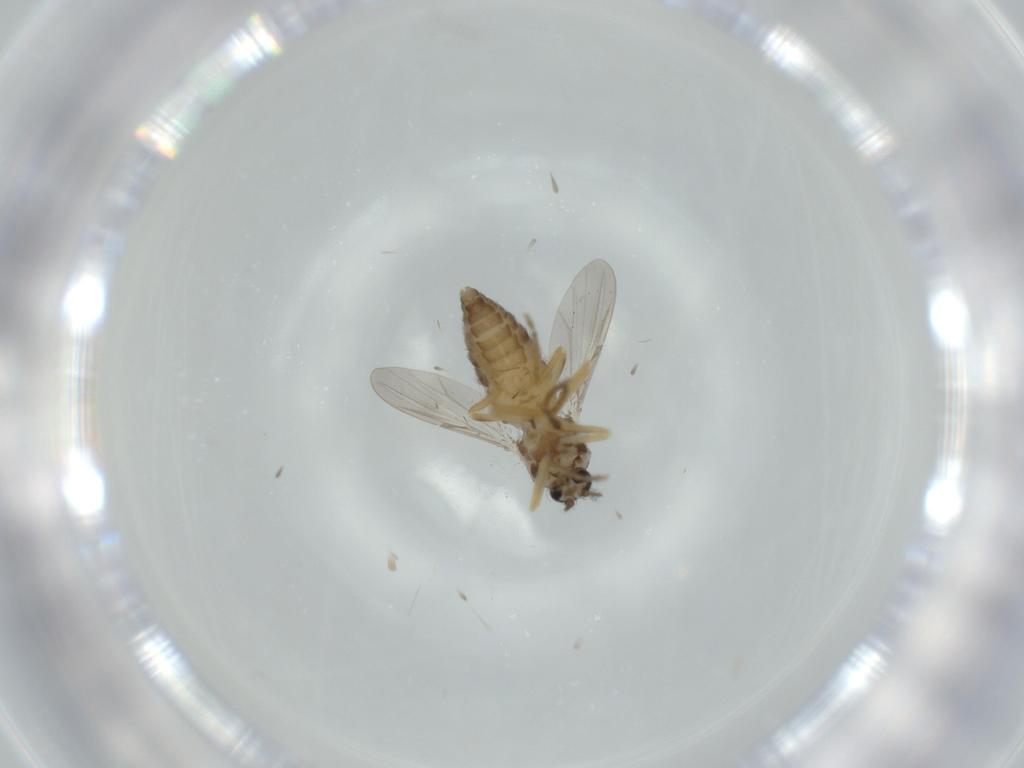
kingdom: Animalia
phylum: Arthropoda
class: Insecta
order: Diptera
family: Ceratopogonidae
